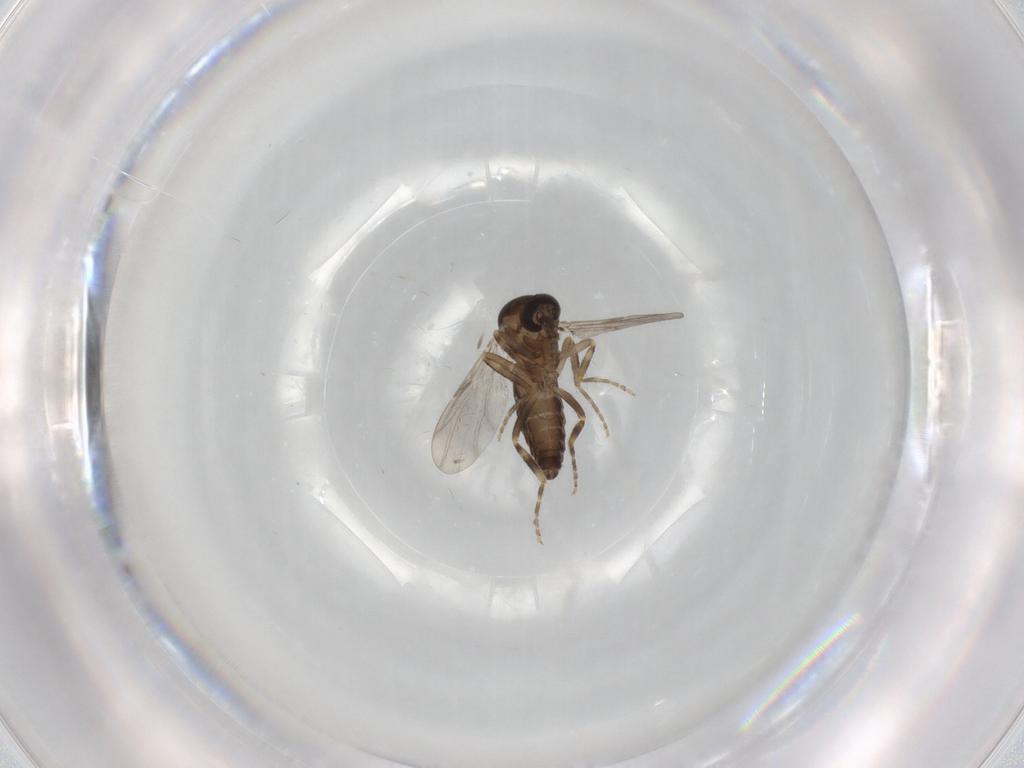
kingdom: Animalia
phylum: Arthropoda
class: Insecta
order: Diptera
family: Ceratopogonidae
